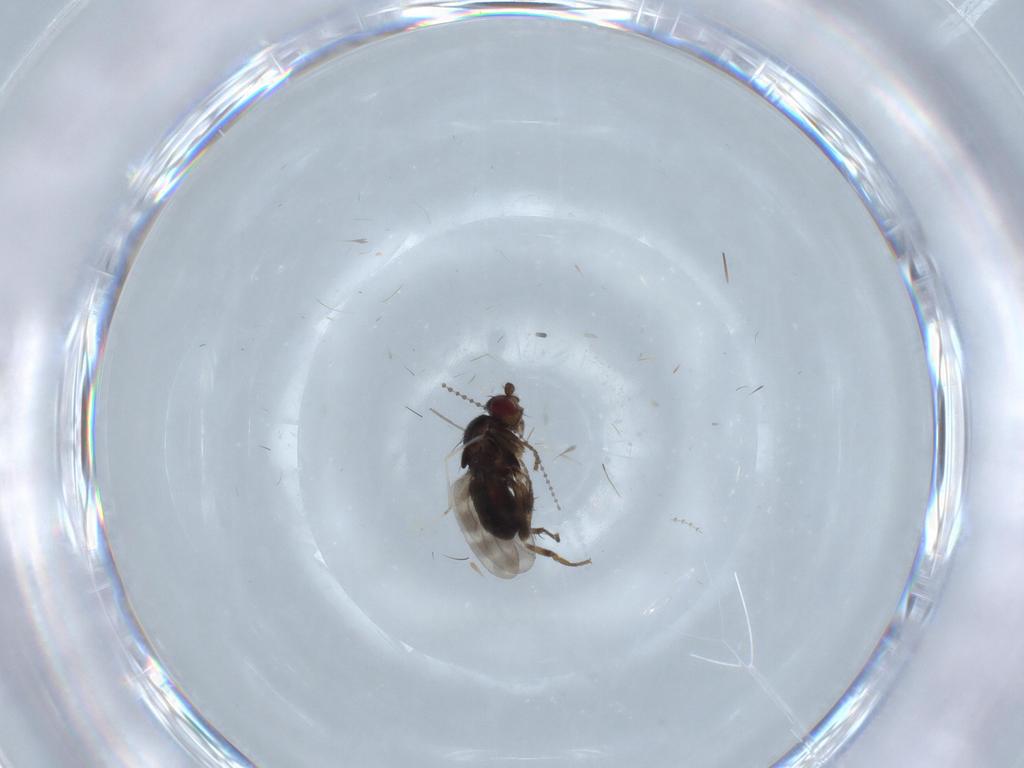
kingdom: Animalia
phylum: Arthropoda
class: Insecta
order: Diptera
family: Sphaeroceridae
